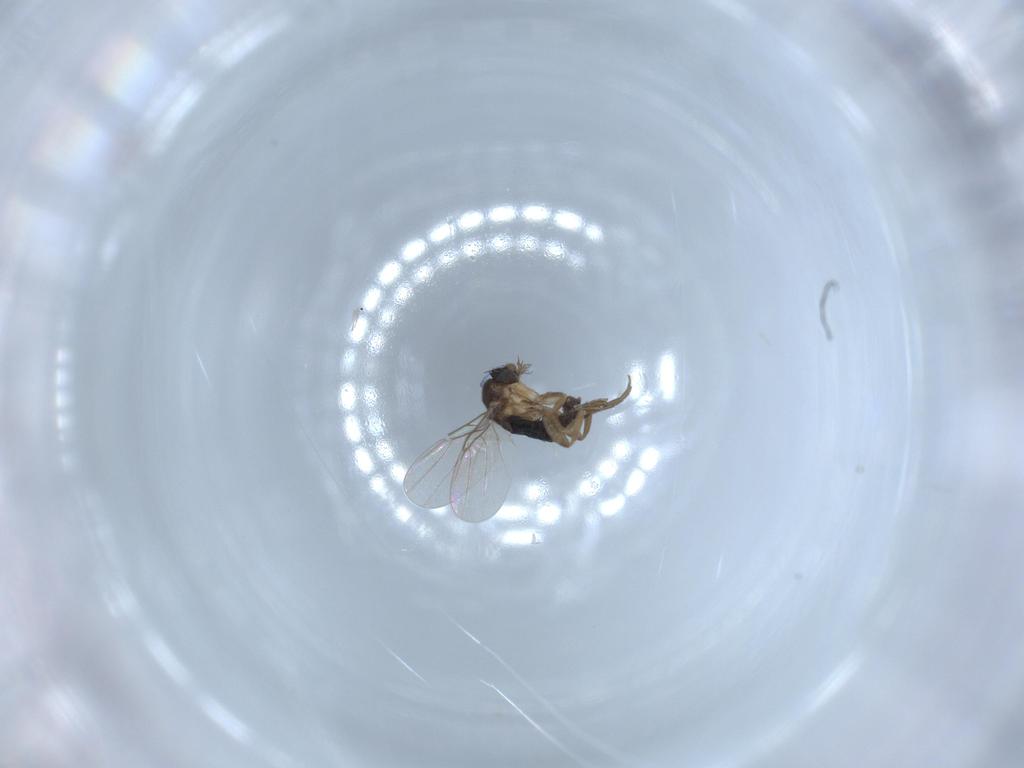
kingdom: Animalia
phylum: Arthropoda
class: Insecta
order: Diptera
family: Phoridae
